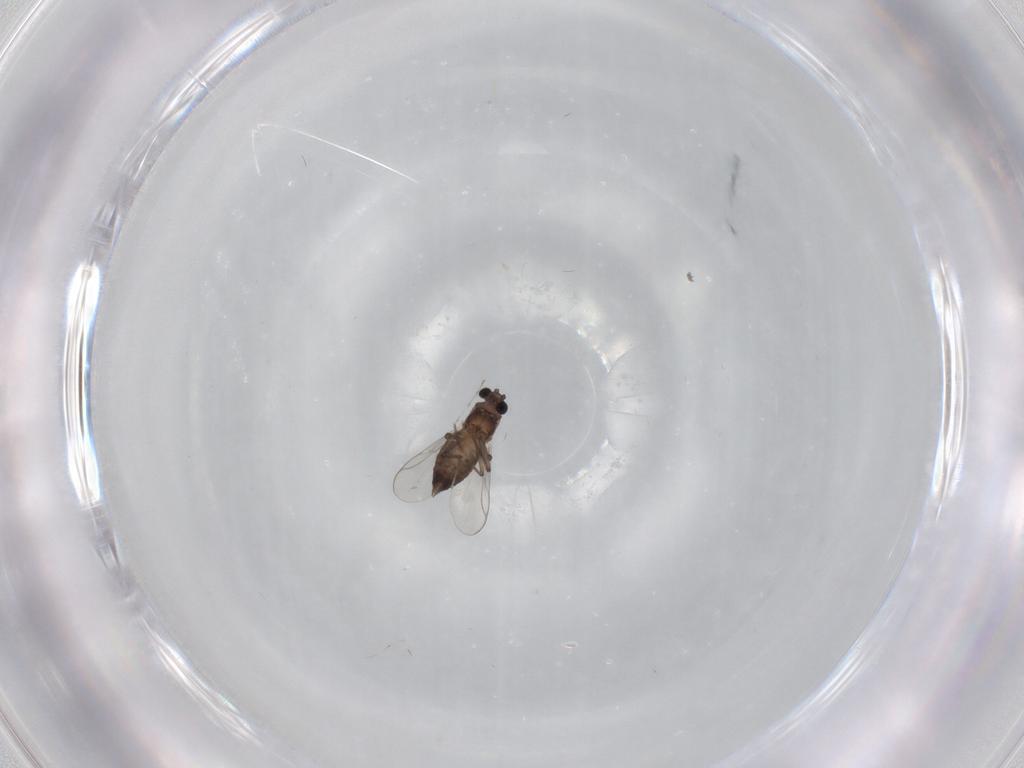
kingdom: Animalia
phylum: Arthropoda
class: Insecta
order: Diptera
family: Chironomidae
